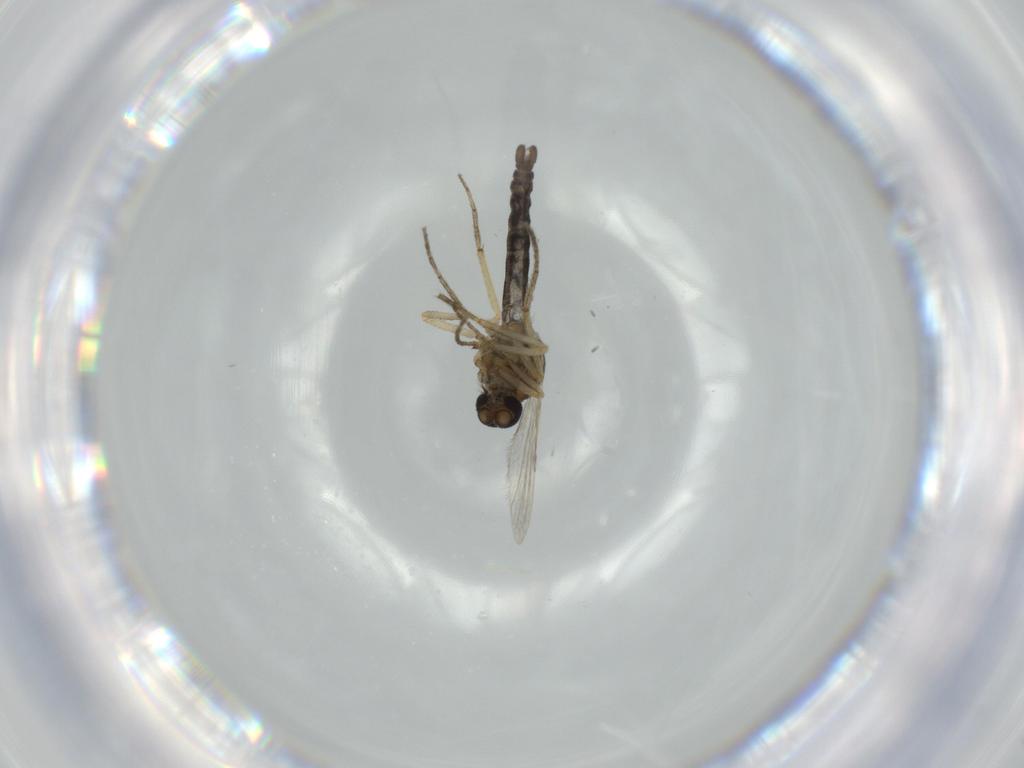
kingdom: Animalia
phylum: Arthropoda
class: Insecta
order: Diptera
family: Ceratopogonidae
